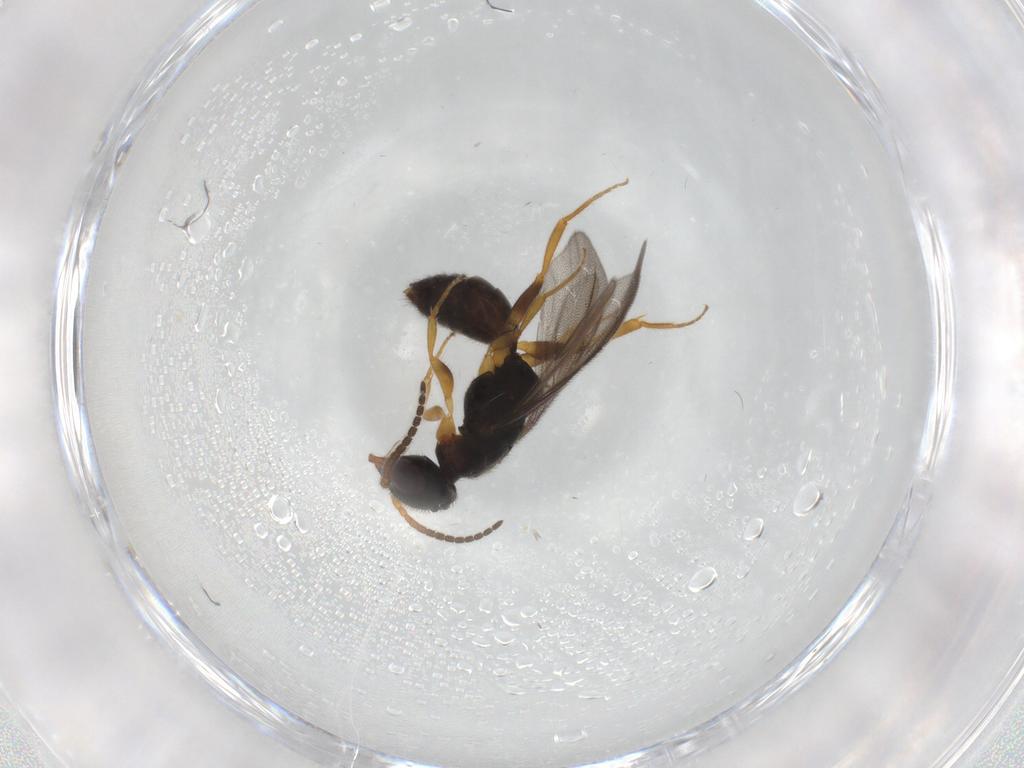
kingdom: Animalia
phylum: Arthropoda
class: Insecta
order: Hymenoptera
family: Bethylidae
